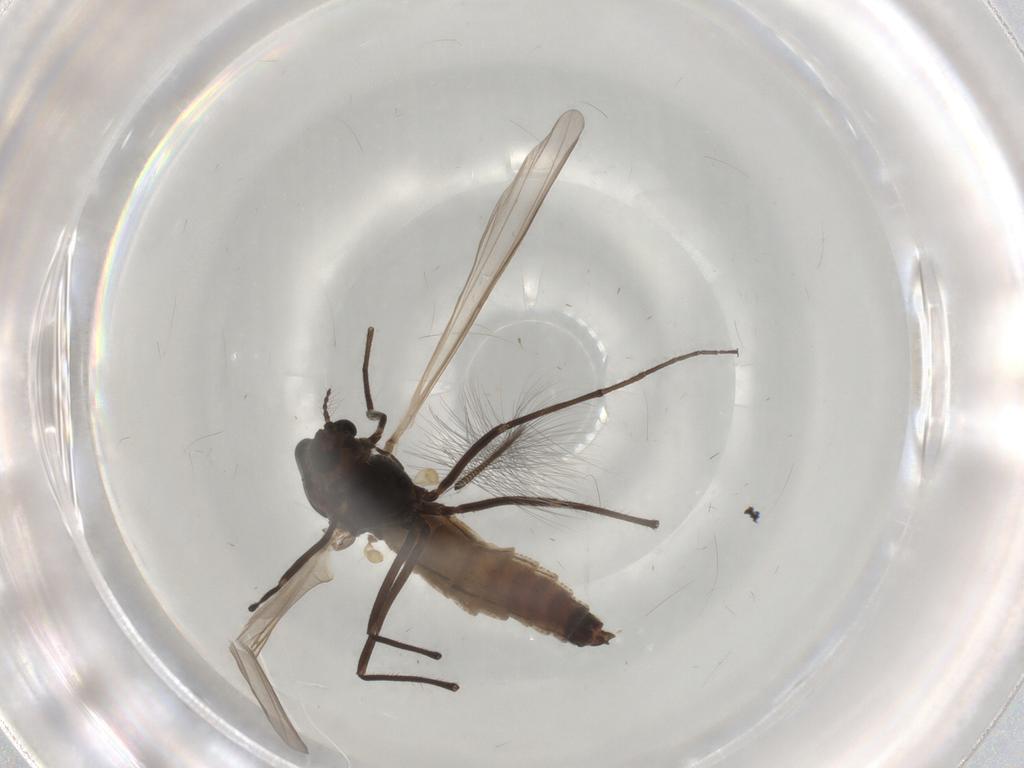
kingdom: Animalia
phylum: Arthropoda
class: Insecta
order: Diptera
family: Chironomidae
